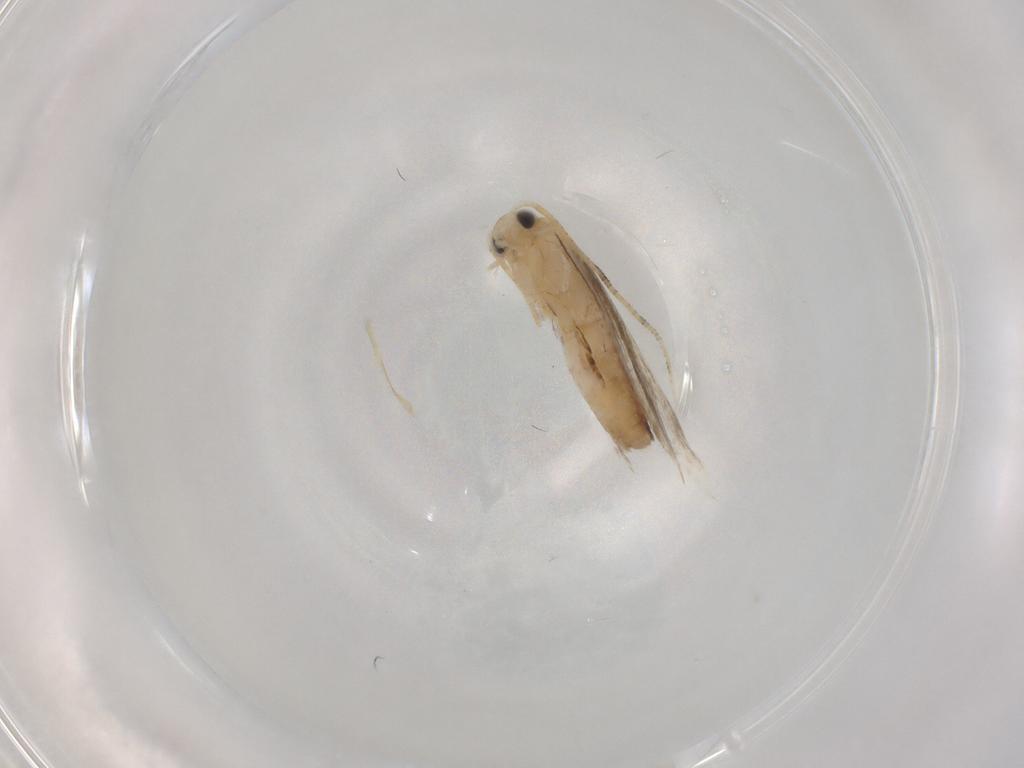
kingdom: Animalia
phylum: Arthropoda
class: Insecta
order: Lepidoptera
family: Dryadaulidae
